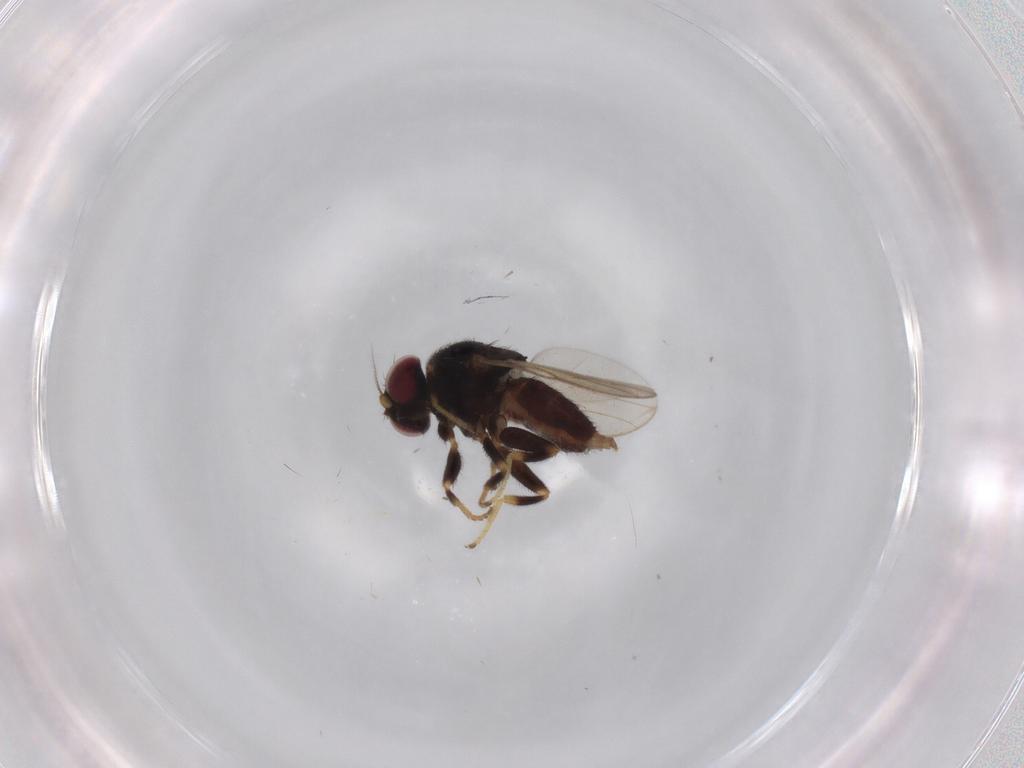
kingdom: Animalia
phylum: Arthropoda
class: Insecta
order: Diptera
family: Chloropidae
